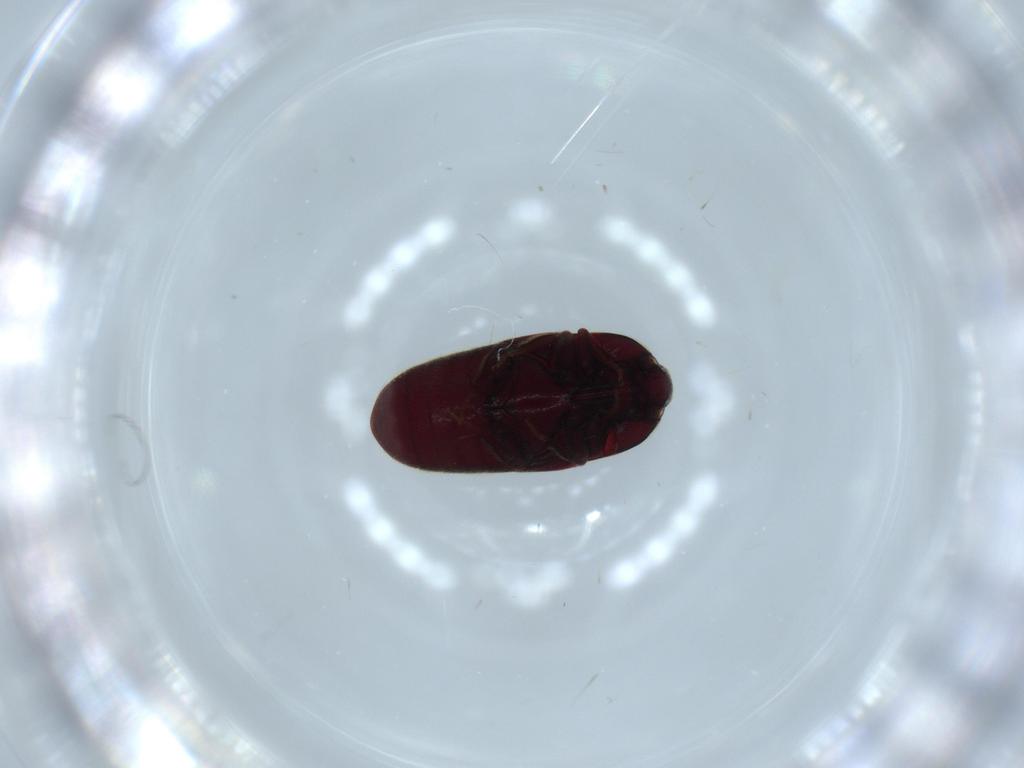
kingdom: Animalia
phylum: Arthropoda
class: Insecta
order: Coleoptera
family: Throscidae
